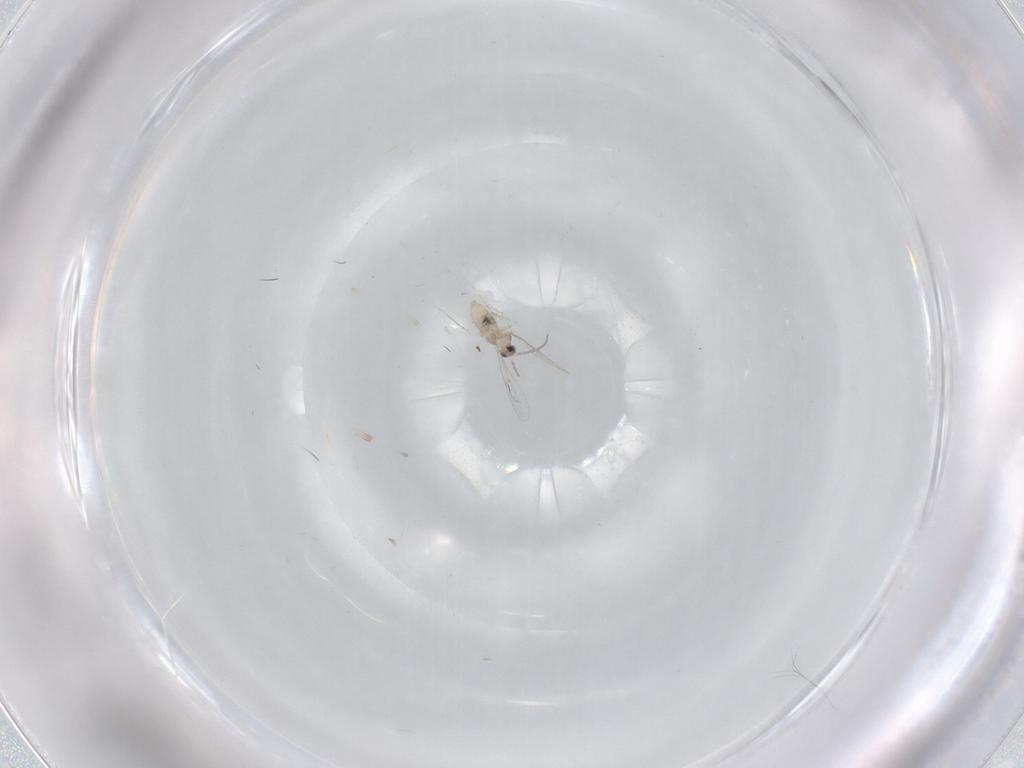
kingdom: Animalia
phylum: Arthropoda
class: Insecta
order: Diptera
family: Cecidomyiidae
